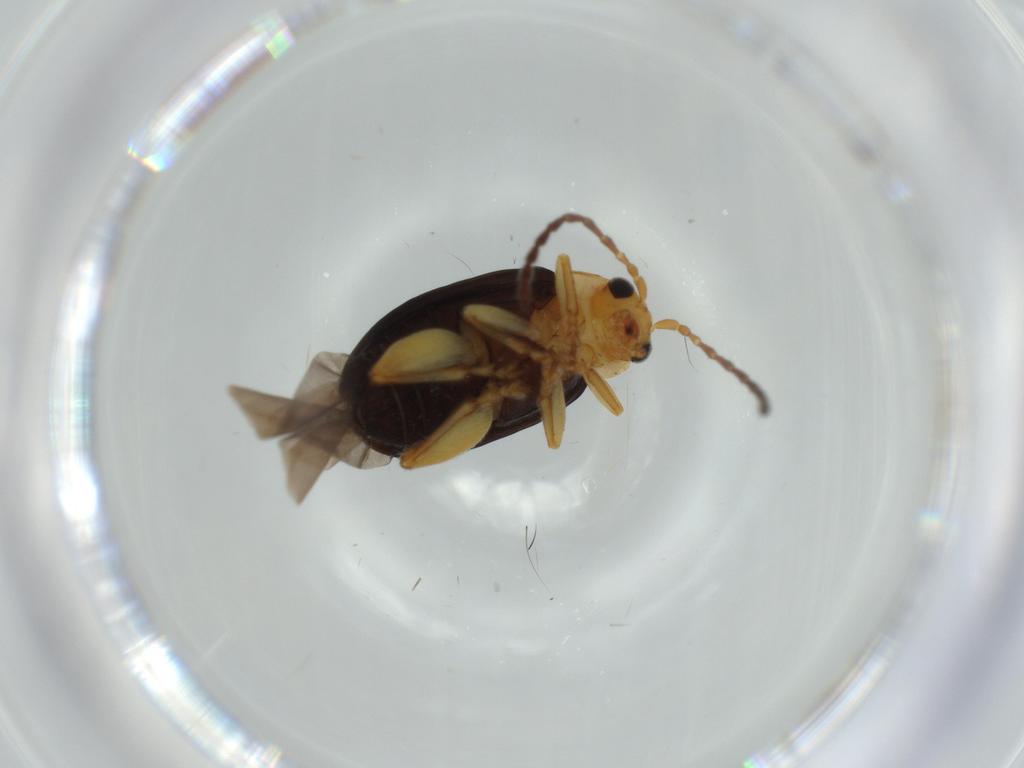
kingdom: Animalia
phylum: Arthropoda
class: Insecta
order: Coleoptera
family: Chrysomelidae
